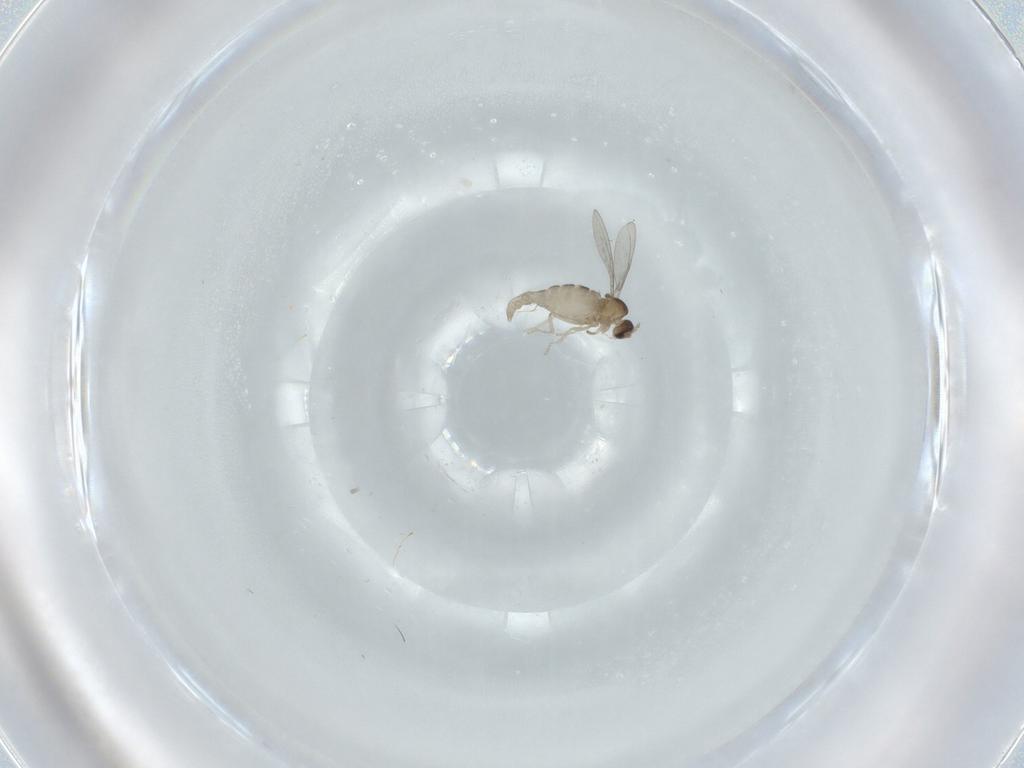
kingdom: Animalia
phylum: Arthropoda
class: Insecta
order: Diptera
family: Cecidomyiidae
